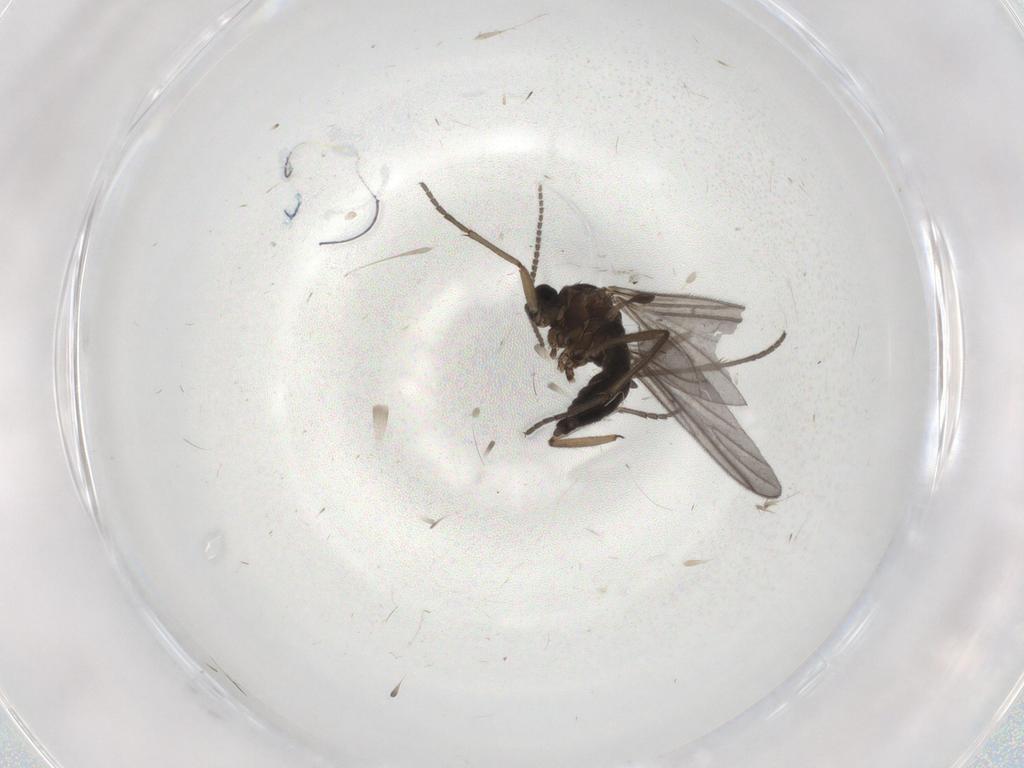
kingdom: Animalia
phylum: Arthropoda
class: Insecta
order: Diptera
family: Sciaridae
